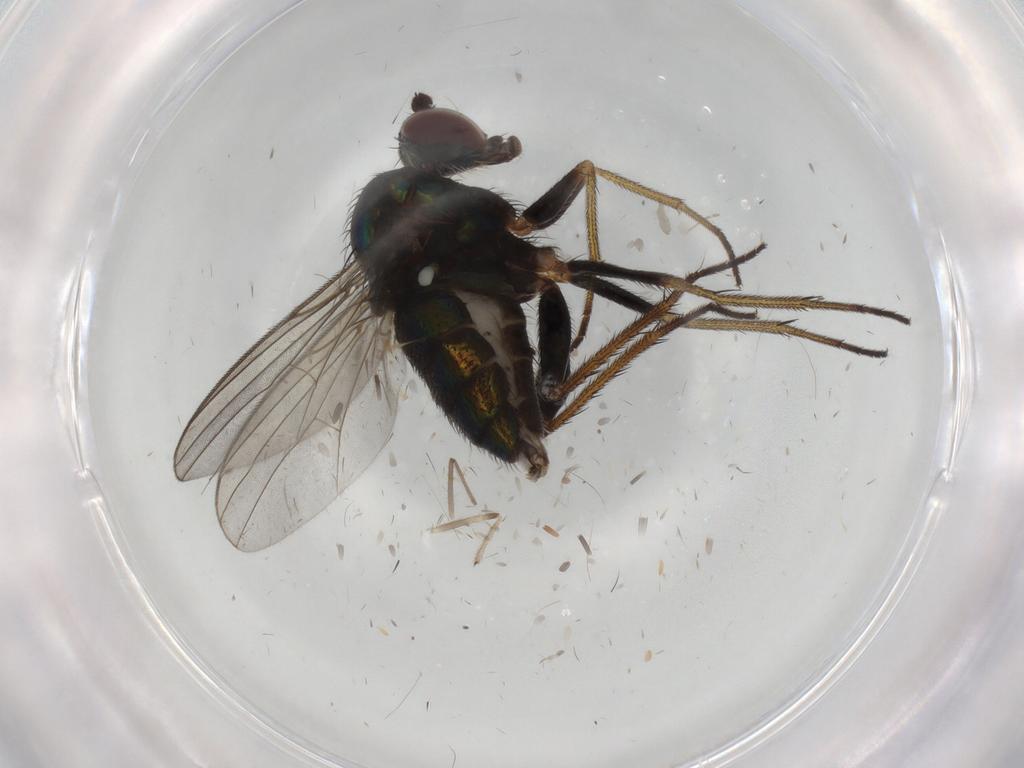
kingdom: Animalia
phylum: Arthropoda
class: Insecta
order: Diptera
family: Dolichopodidae
